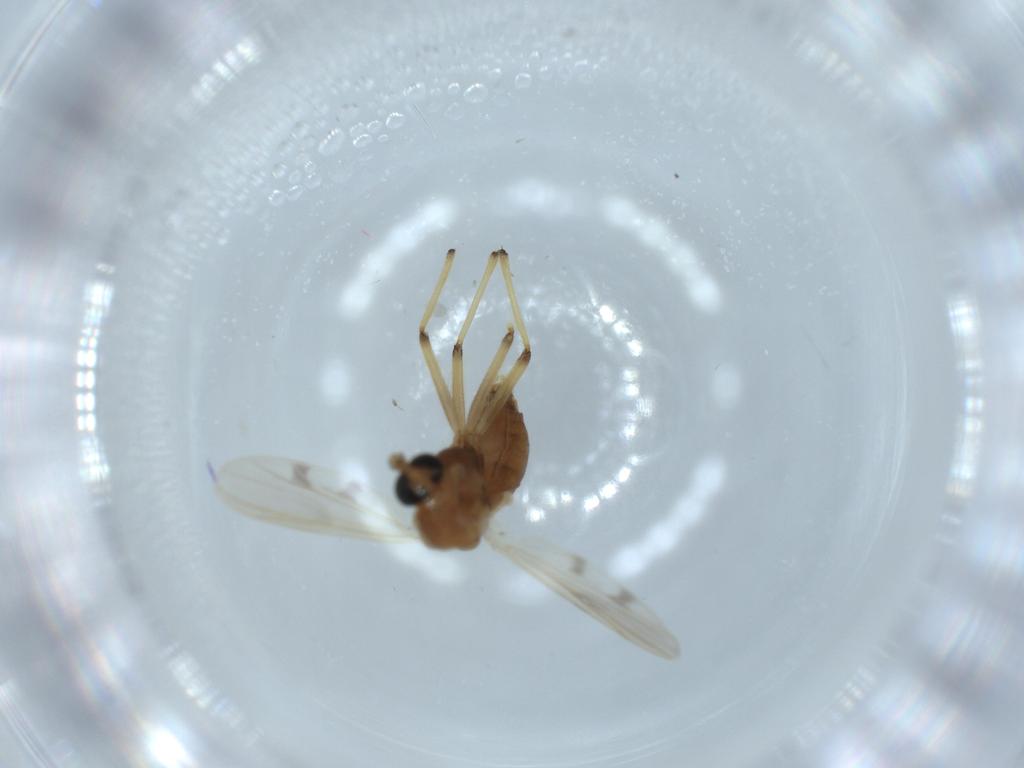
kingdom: Animalia
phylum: Arthropoda
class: Insecta
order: Diptera
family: Chironomidae
